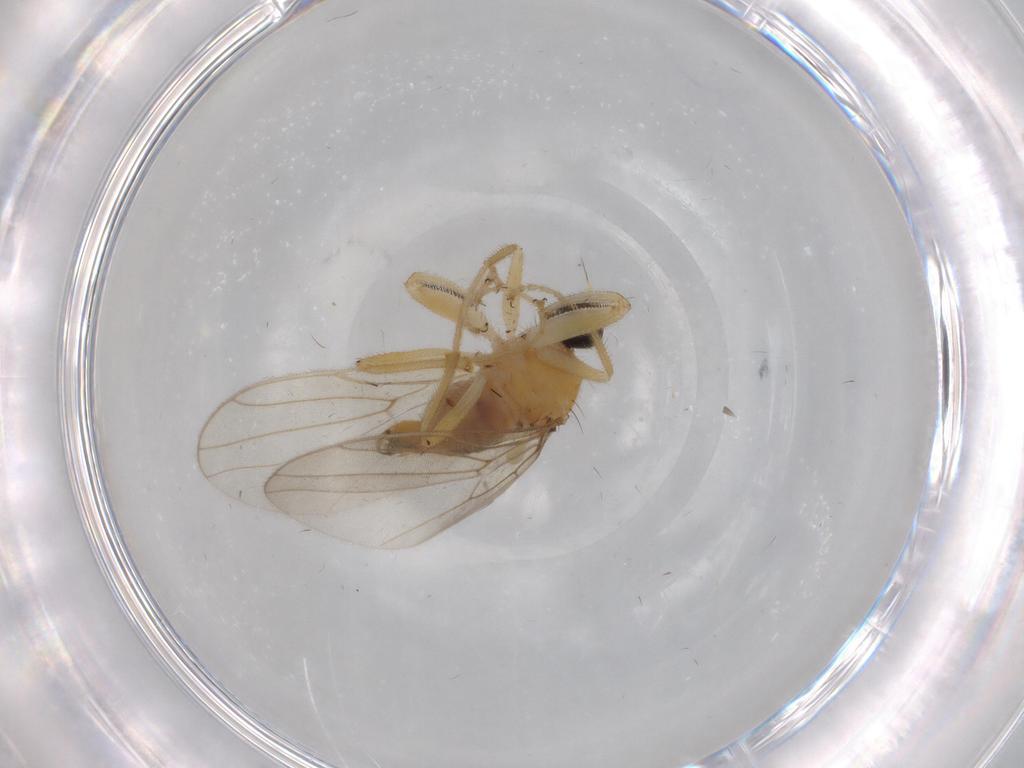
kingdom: Animalia
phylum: Arthropoda
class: Insecta
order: Diptera
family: Hybotidae
